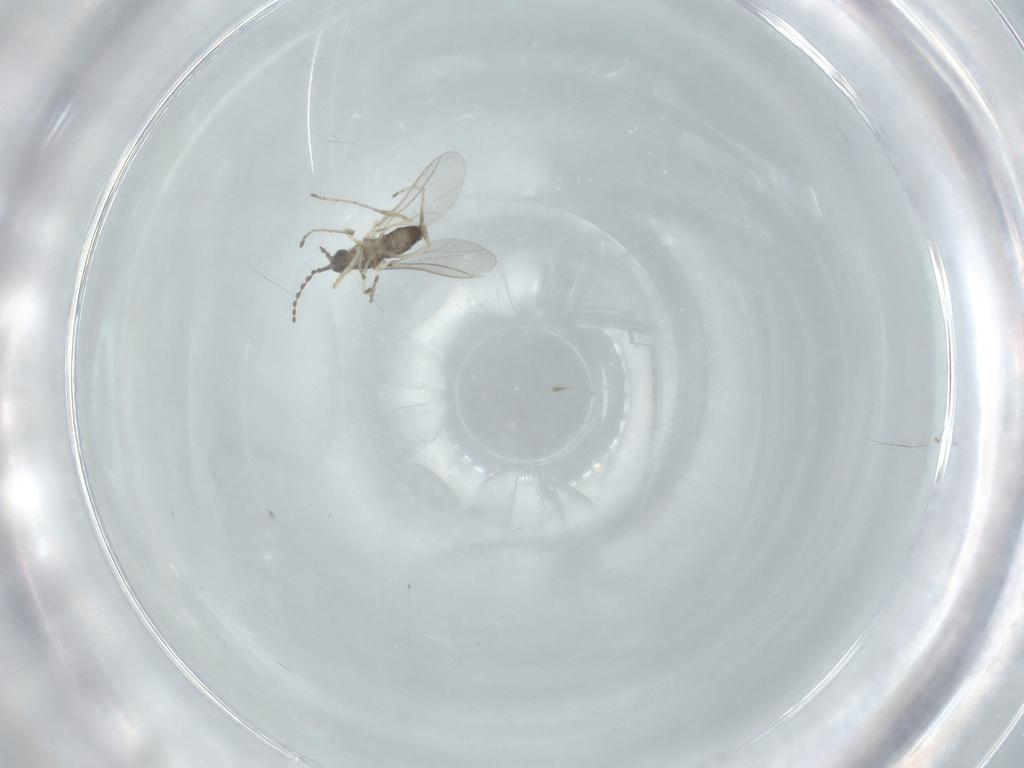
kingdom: Animalia
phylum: Arthropoda
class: Insecta
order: Diptera
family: Cecidomyiidae
